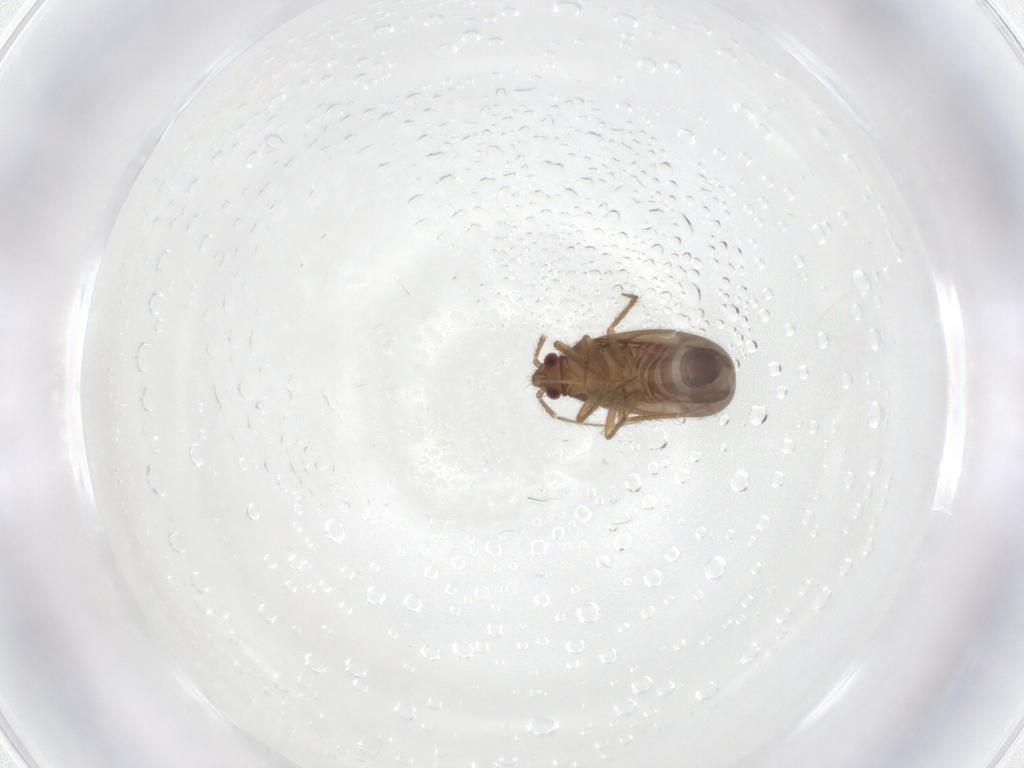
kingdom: Animalia
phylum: Arthropoda
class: Insecta
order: Hemiptera
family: Ceratocombidae
